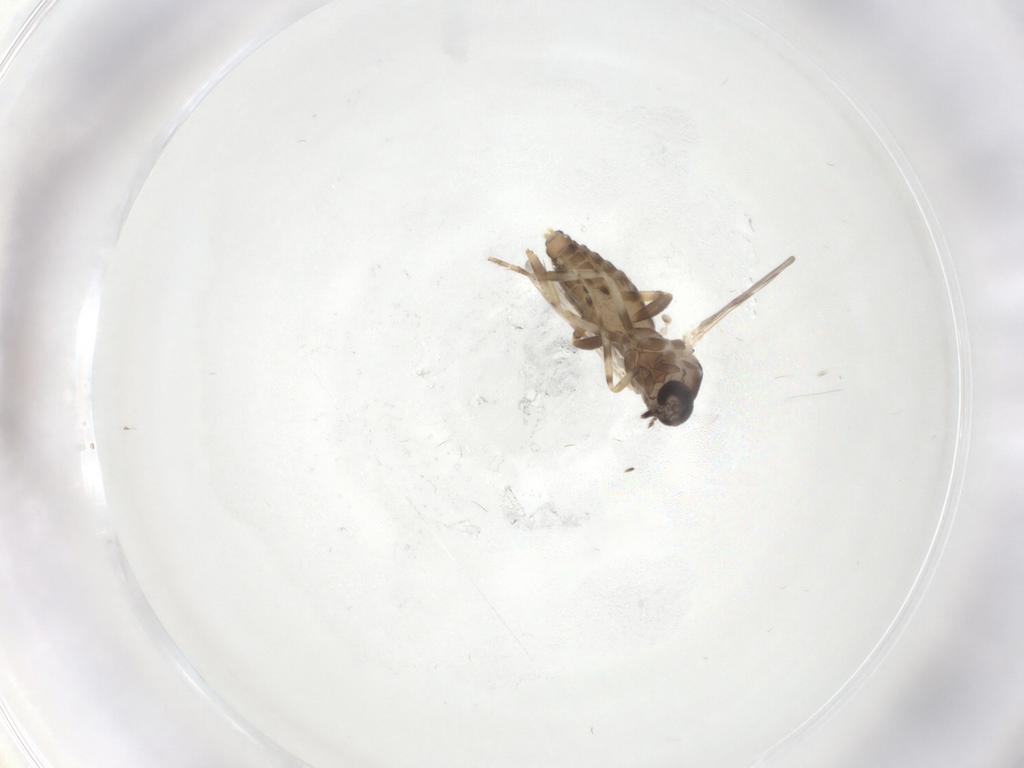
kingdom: Animalia
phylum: Arthropoda
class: Insecta
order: Diptera
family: Ceratopogonidae
